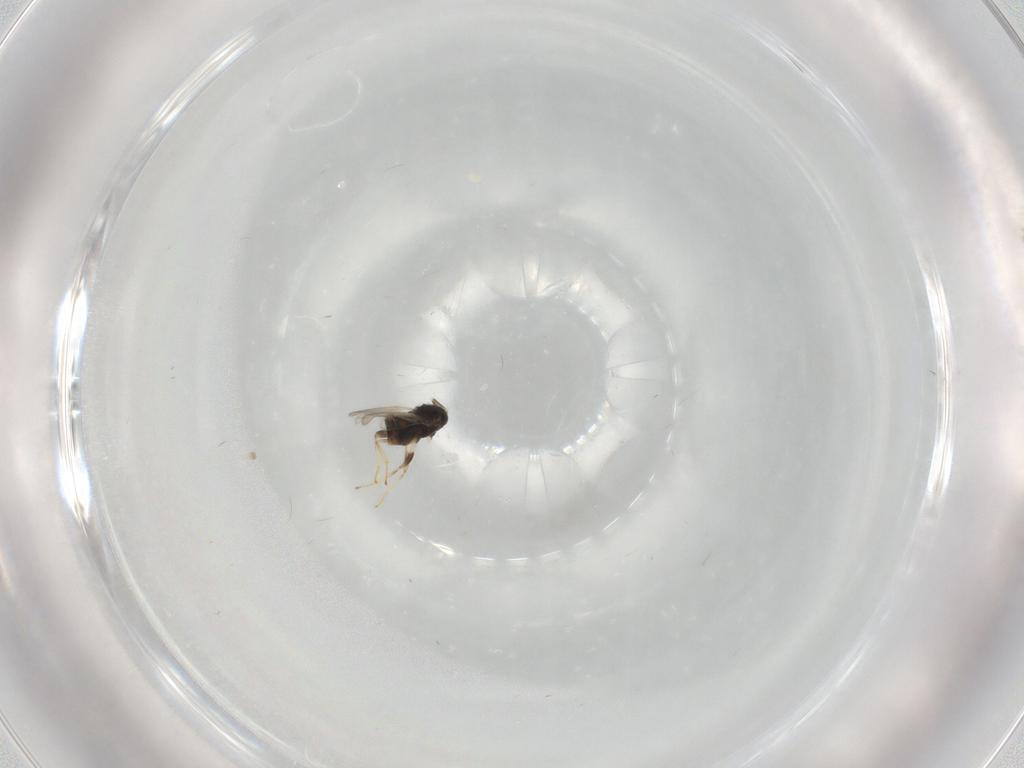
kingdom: Animalia
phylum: Arthropoda
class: Insecta
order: Hymenoptera
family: Aphelinidae
